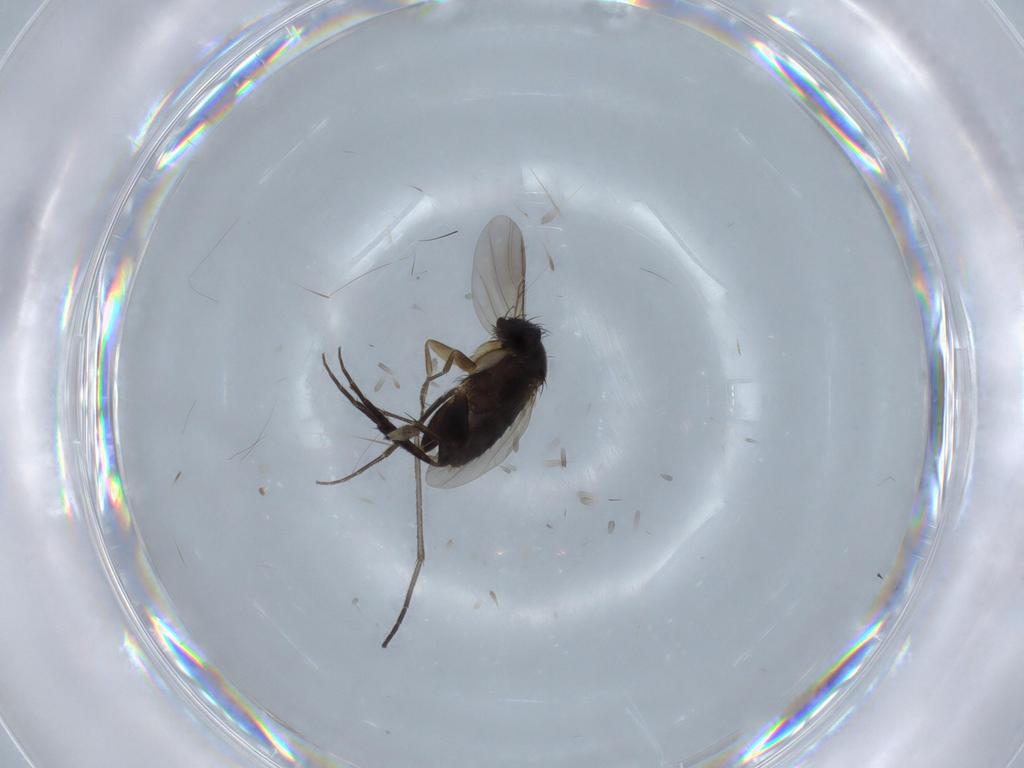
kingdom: Animalia
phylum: Arthropoda
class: Insecta
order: Diptera
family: Phoridae
